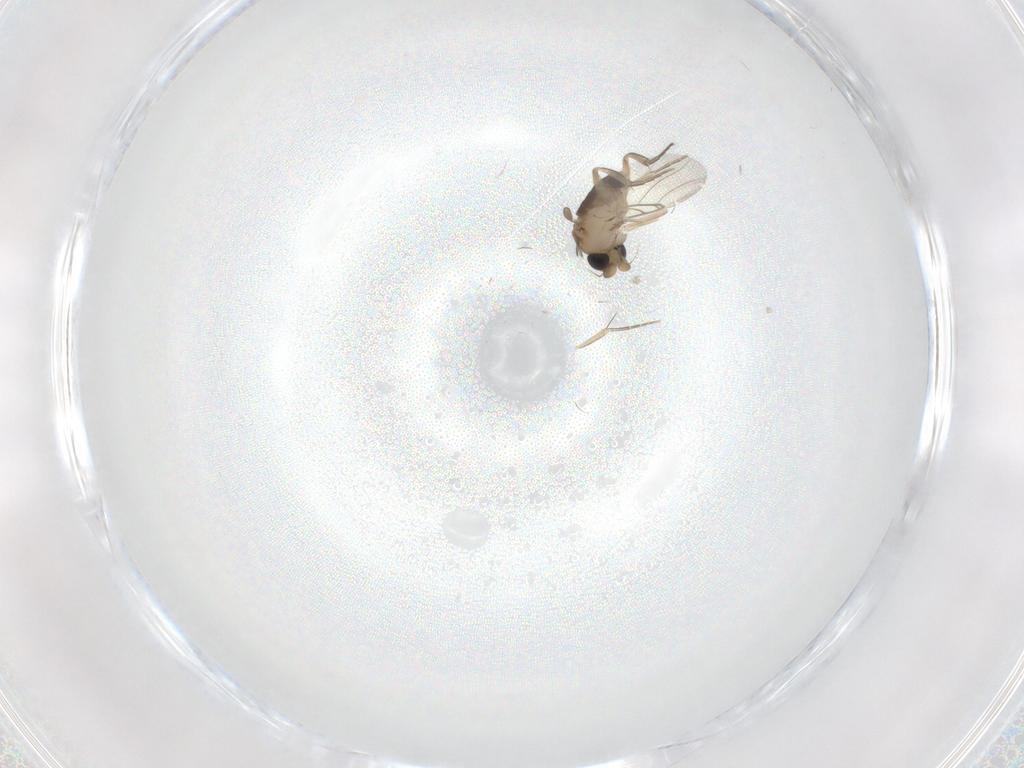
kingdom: Animalia
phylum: Arthropoda
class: Insecta
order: Diptera
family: Phoridae
